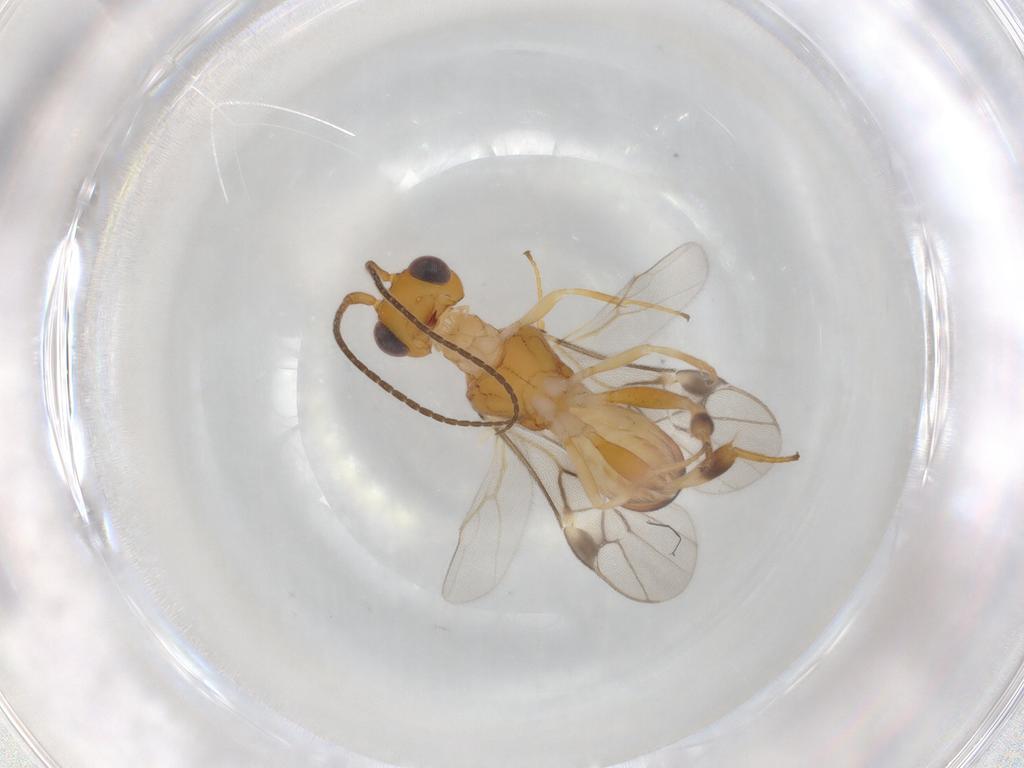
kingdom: Animalia
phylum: Arthropoda
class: Insecta
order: Hymenoptera
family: Braconidae
